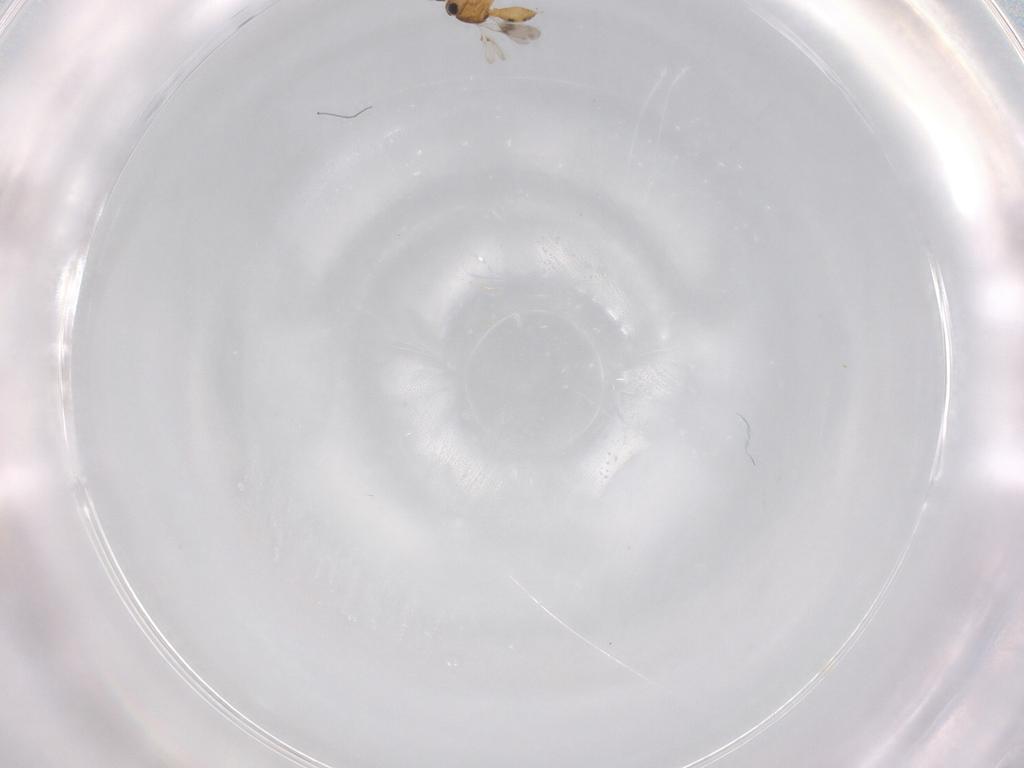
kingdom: Animalia
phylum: Arthropoda
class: Insecta
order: Hymenoptera
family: Scelionidae
